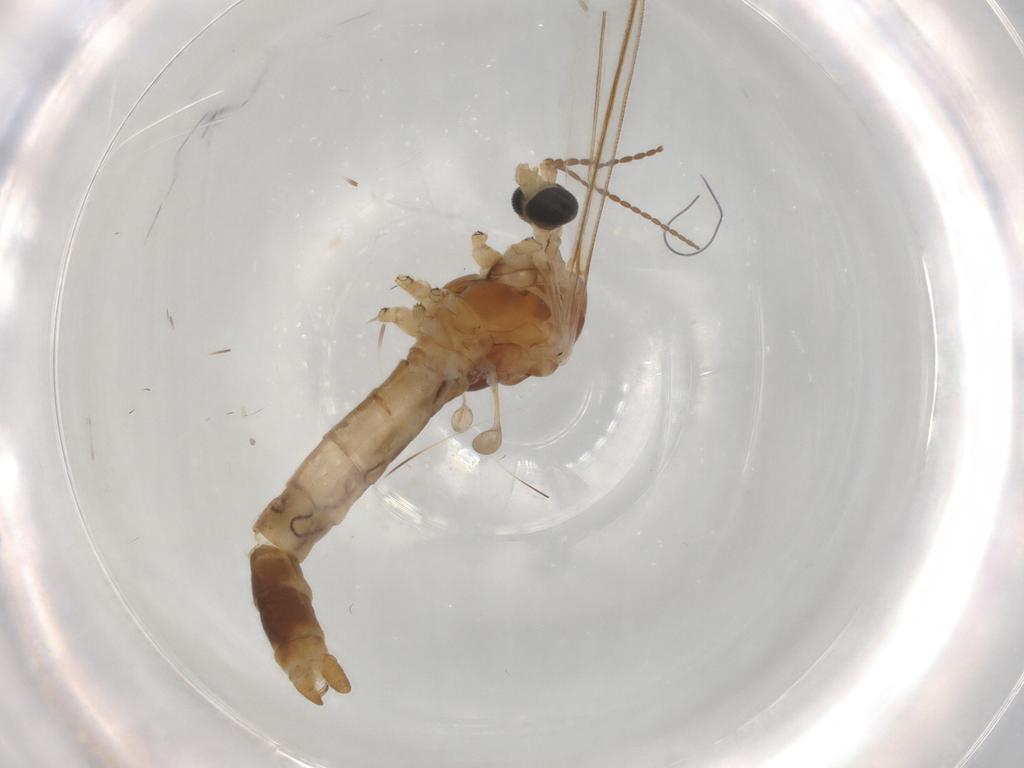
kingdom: Animalia
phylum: Arthropoda
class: Insecta
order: Diptera
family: Limoniidae
